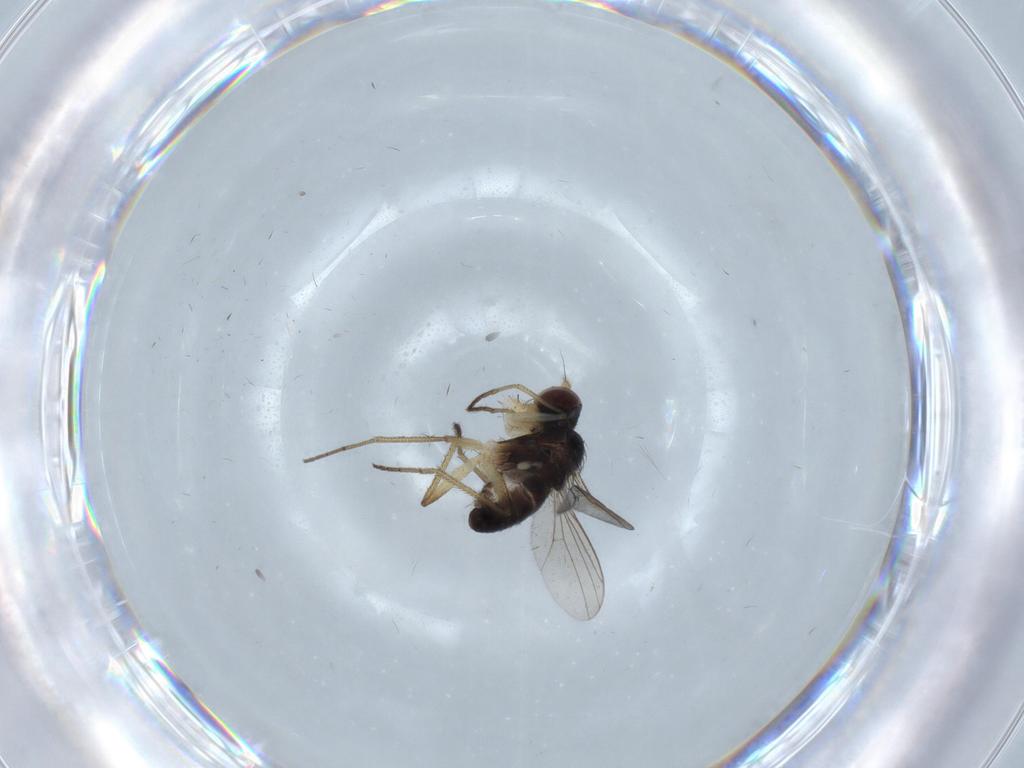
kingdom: Animalia
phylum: Arthropoda
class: Insecta
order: Diptera
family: Dolichopodidae
